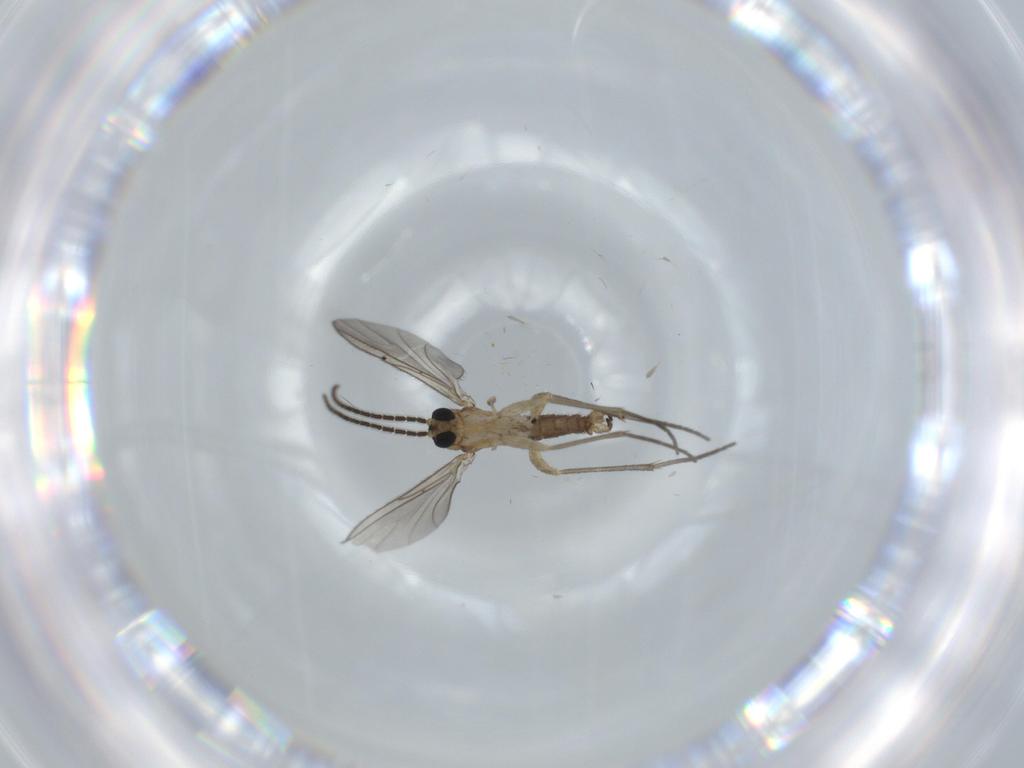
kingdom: Animalia
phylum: Arthropoda
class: Insecta
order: Diptera
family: Sciaridae
